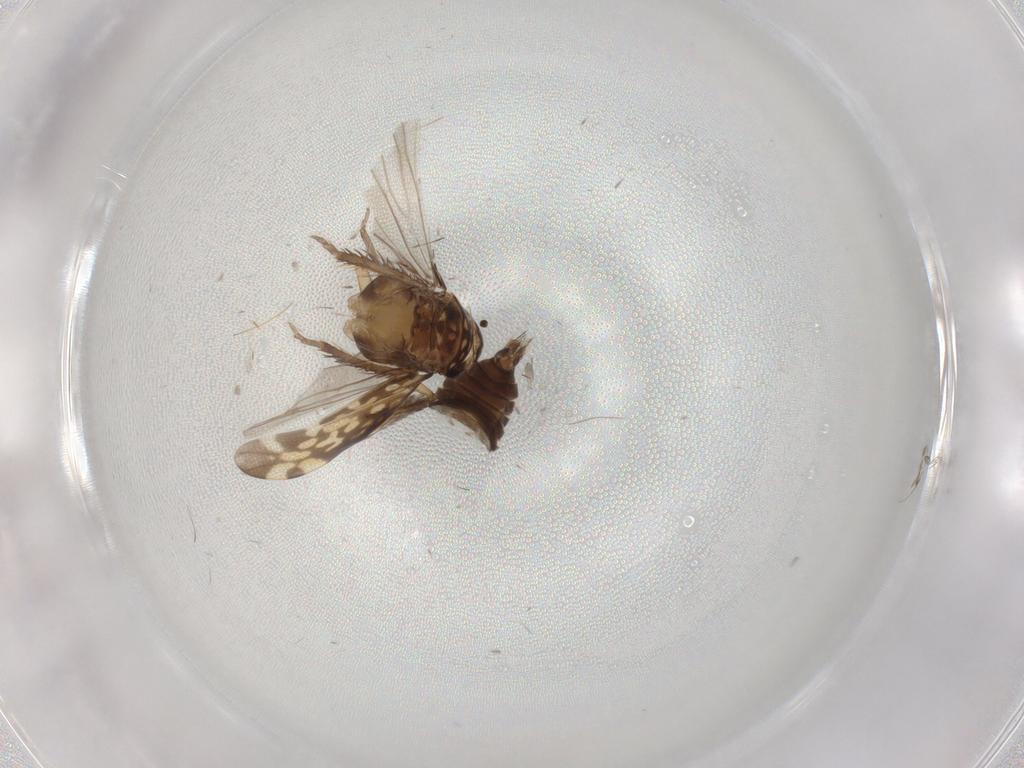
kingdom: Animalia
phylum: Arthropoda
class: Insecta
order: Hemiptera
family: Cicadellidae
